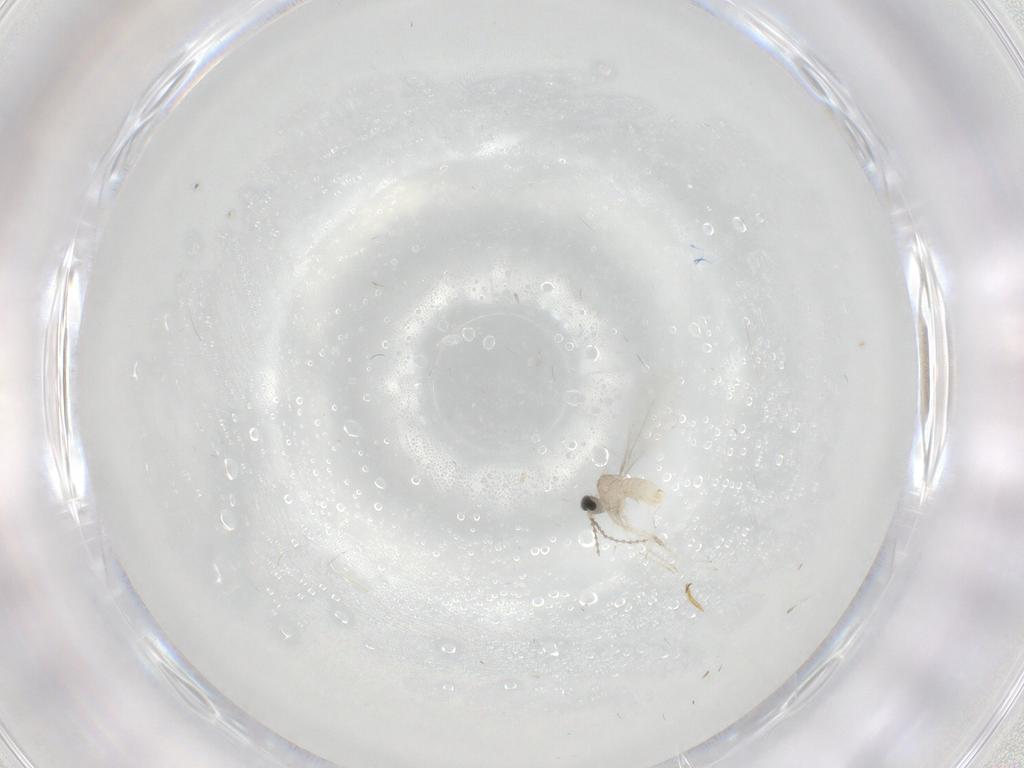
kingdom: Animalia
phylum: Arthropoda
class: Insecta
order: Diptera
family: Cecidomyiidae
